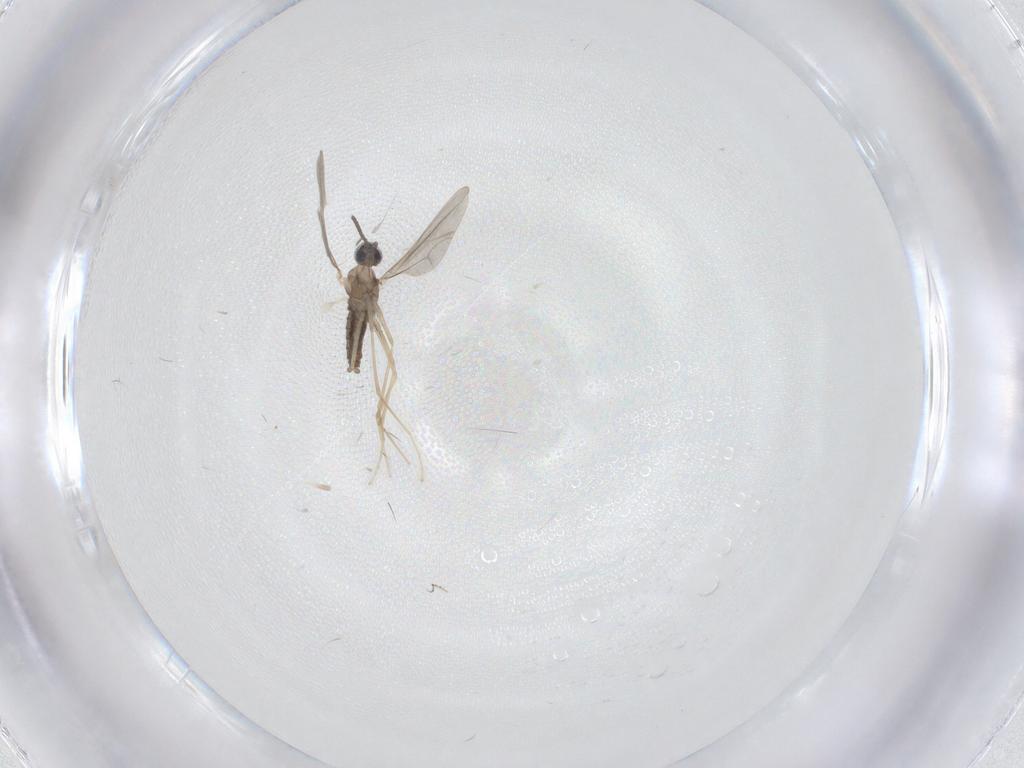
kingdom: Animalia
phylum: Arthropoda
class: Insecta
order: Diptera
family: Cecidomyiidae
